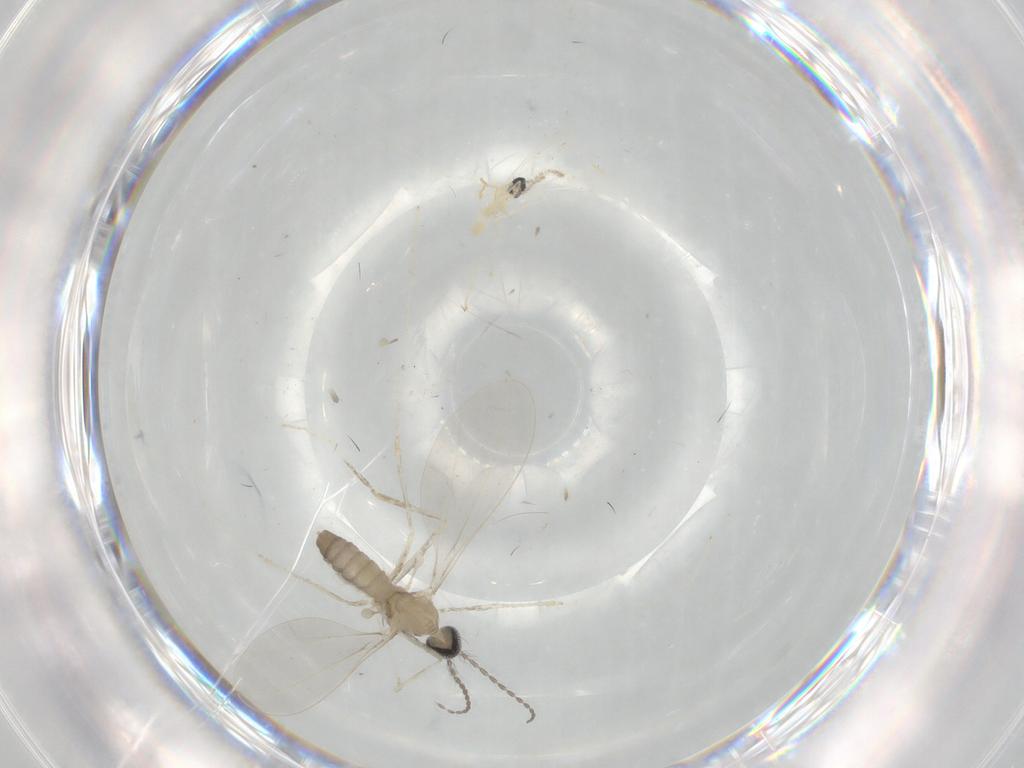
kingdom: Animalia
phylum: Arthropoda
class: Insecta
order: Diptera
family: Cecidomyiidae
